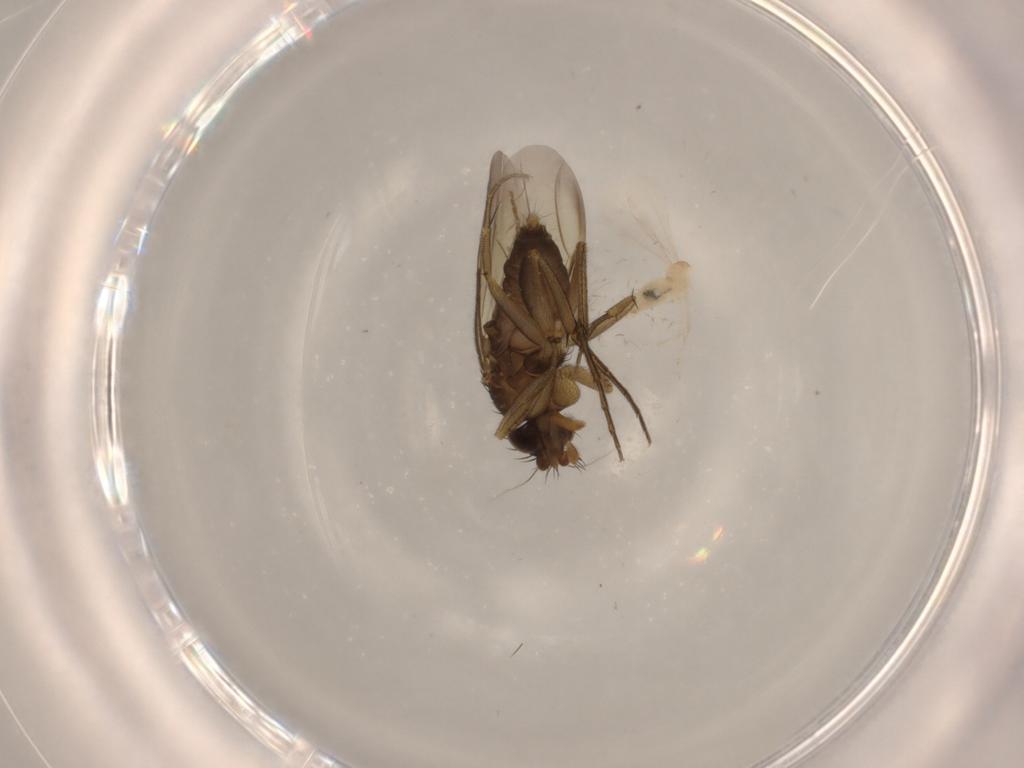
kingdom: Animalia
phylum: Arthropoda
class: Insecta
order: Diptera
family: Cecidomyiidae
